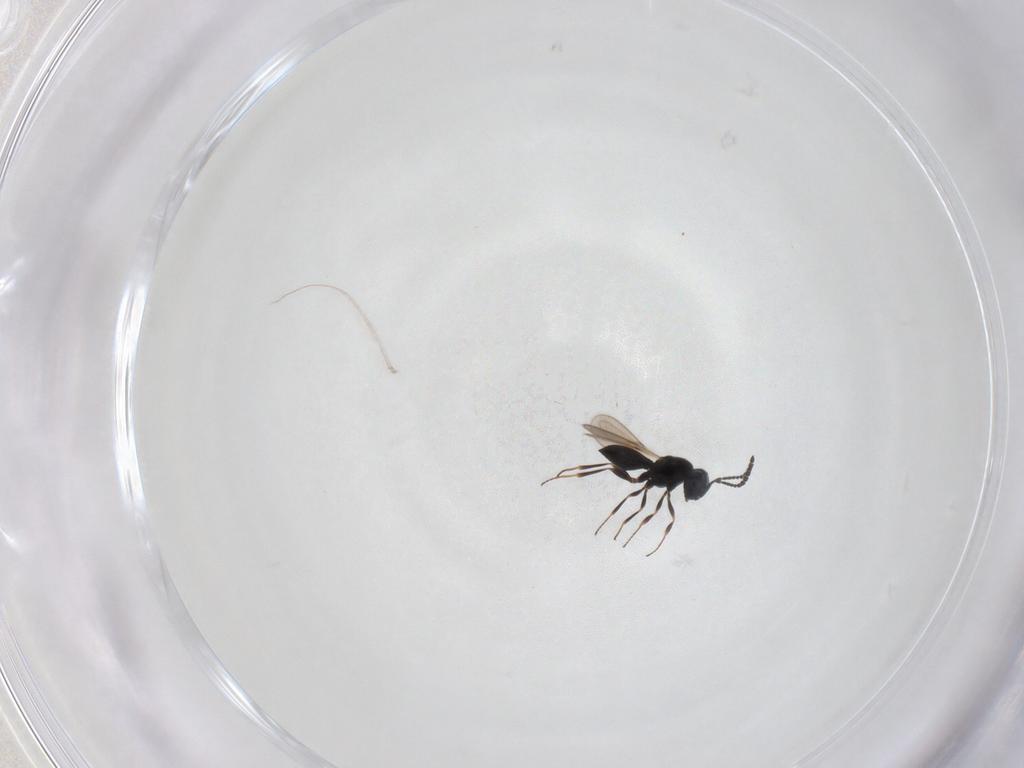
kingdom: Animalia
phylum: Arthropoda
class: Insecta
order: Hymenoptera
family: Scelionidae
